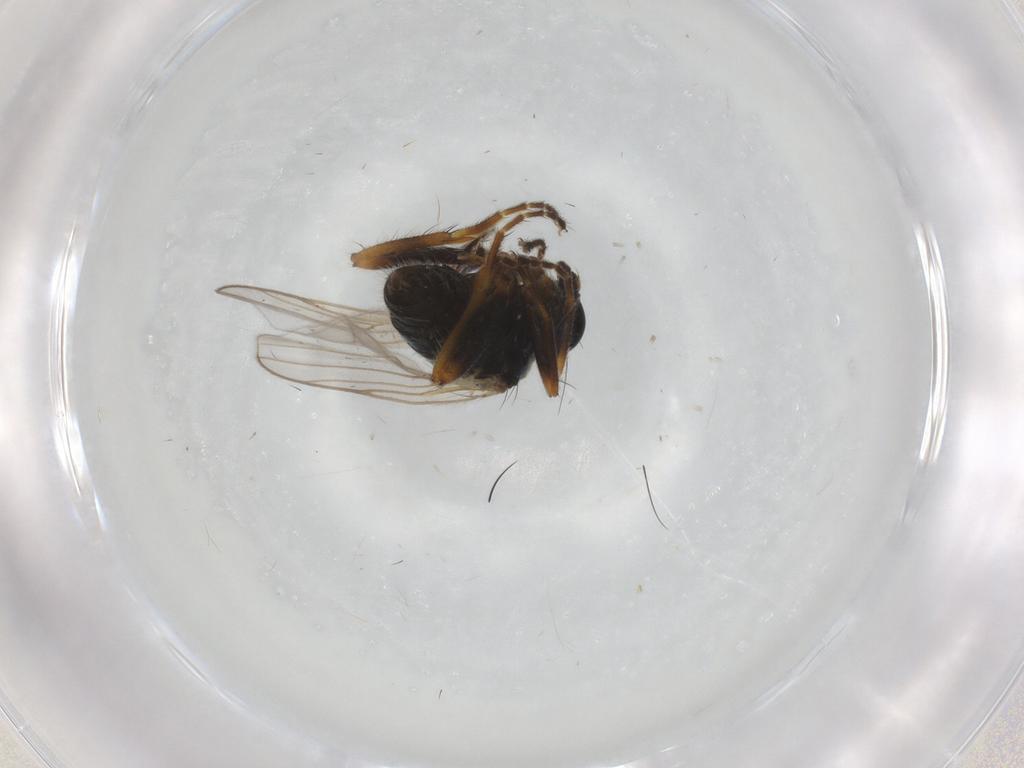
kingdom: Animalia
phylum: Arthropoda
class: Insecta
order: Diptera
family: Hybotidae
